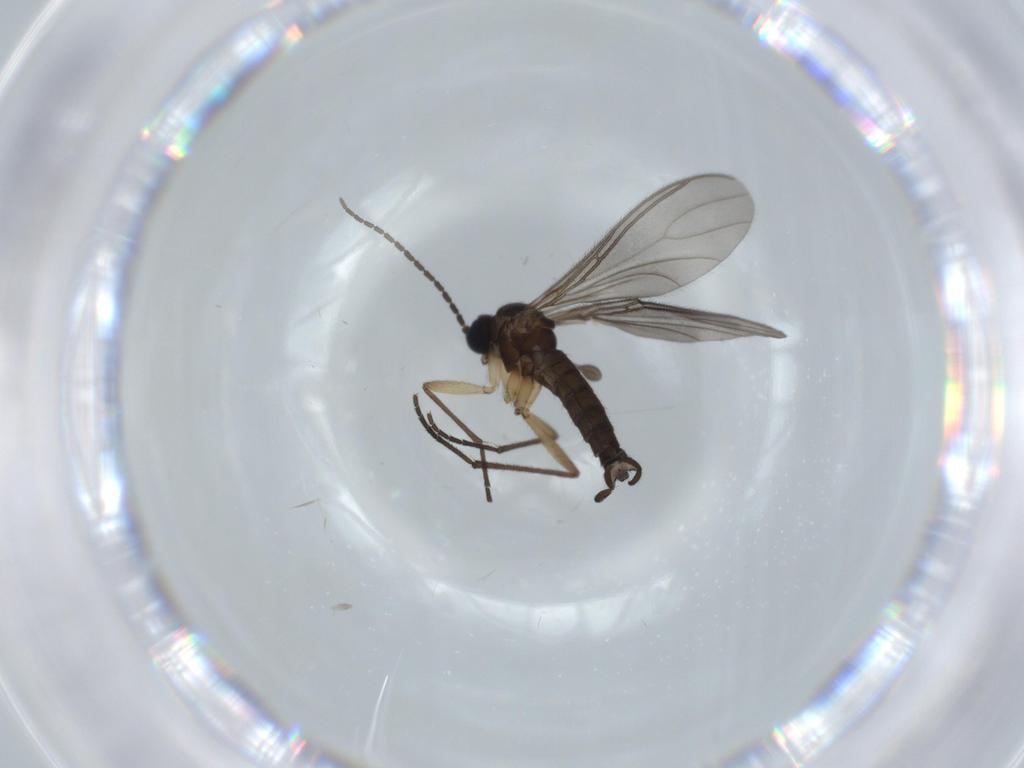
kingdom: Animalia
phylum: Arthropoda
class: Insecta
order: Diptera
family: Sciaridae
